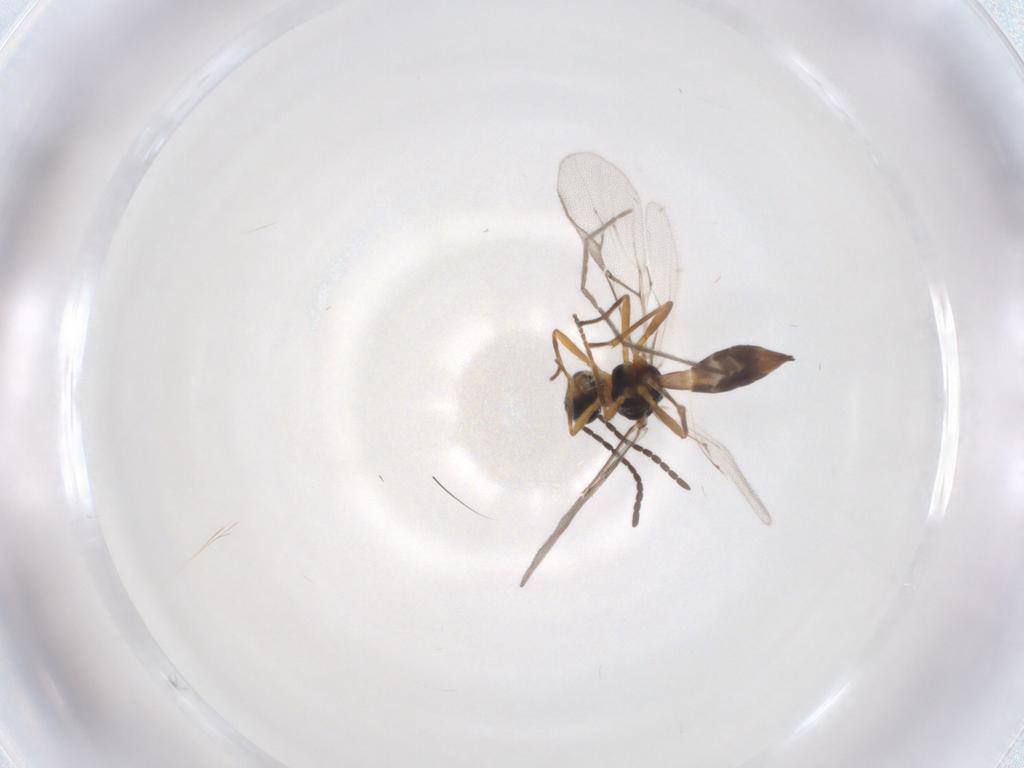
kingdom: Animalia
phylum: Arthropoda
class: Insecta
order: Hymenoptera
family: Braconidae
